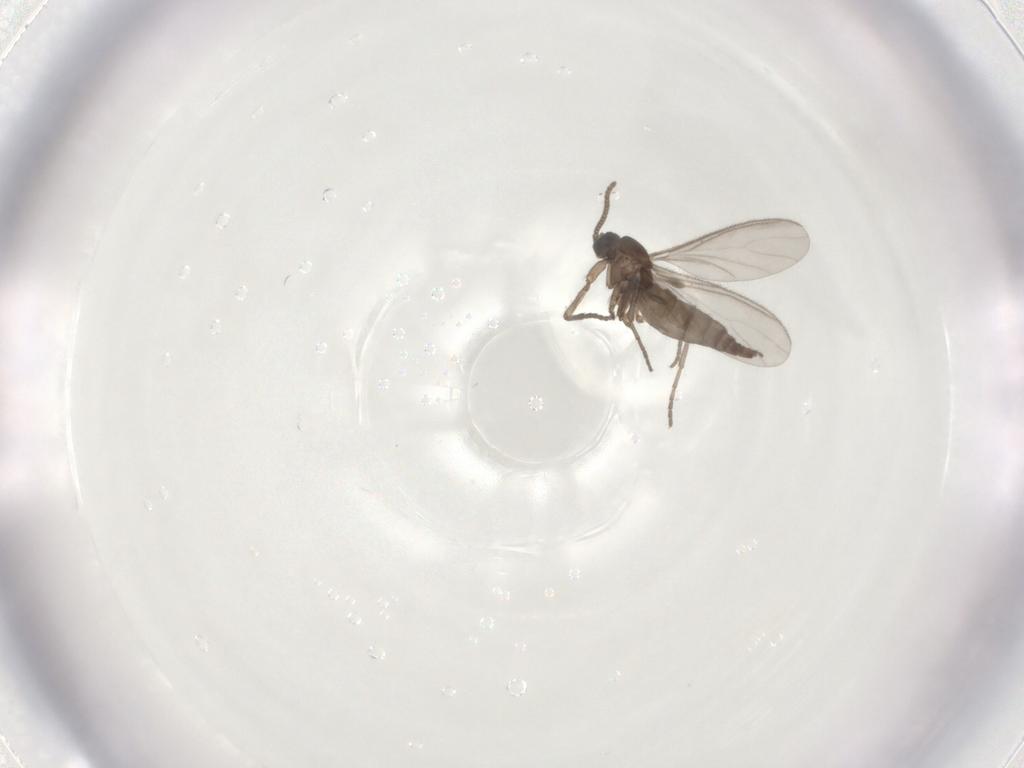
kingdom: Animalia
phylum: Arthropoda
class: Insecta
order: Diptera
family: Sciaridae
